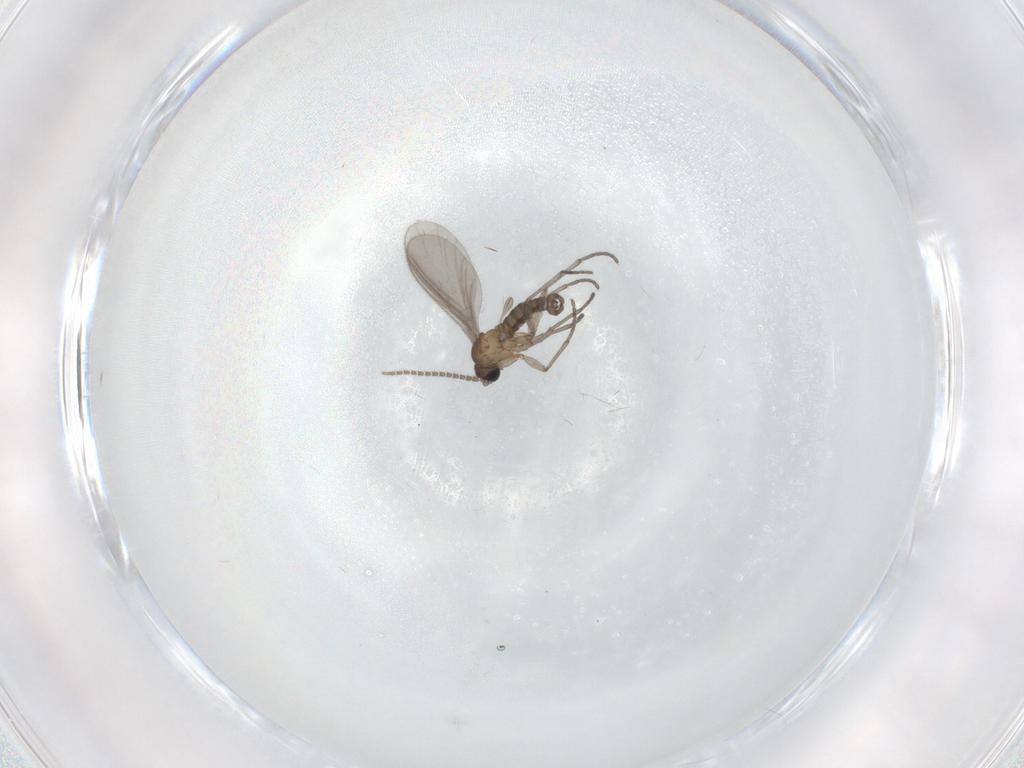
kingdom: Animalia
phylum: Arthropoda
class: Insecta
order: Diptera
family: Sciaridae
